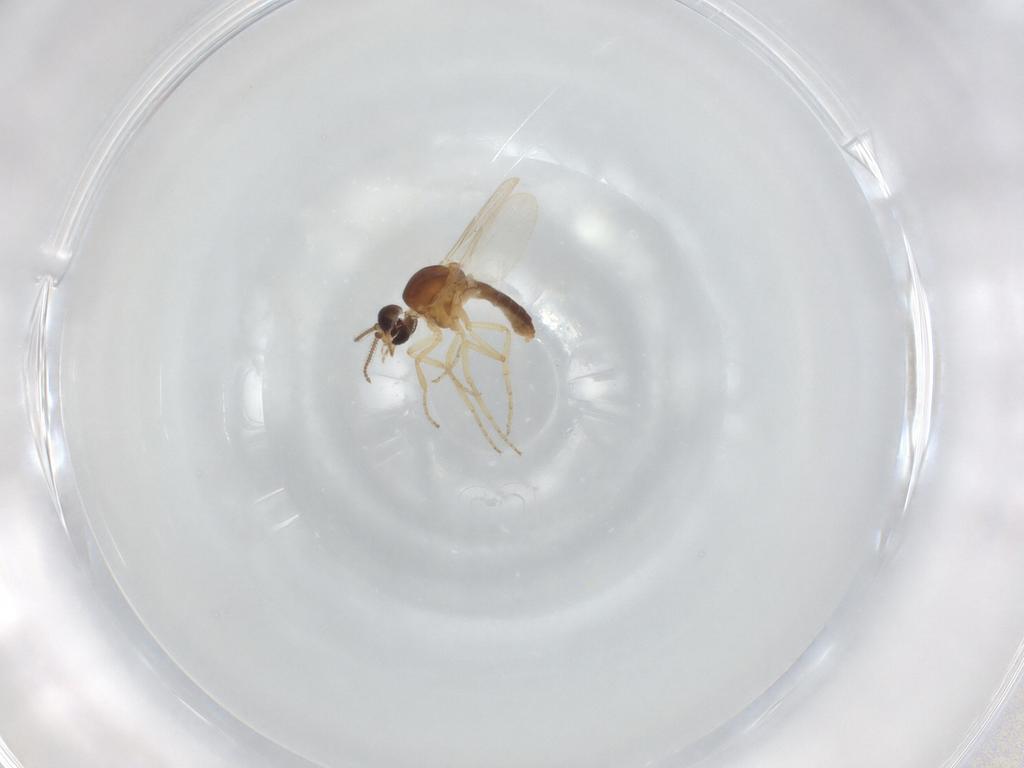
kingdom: Animalia
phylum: Arthropoda
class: Insecta
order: Diptera
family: Ceratopogonidae
